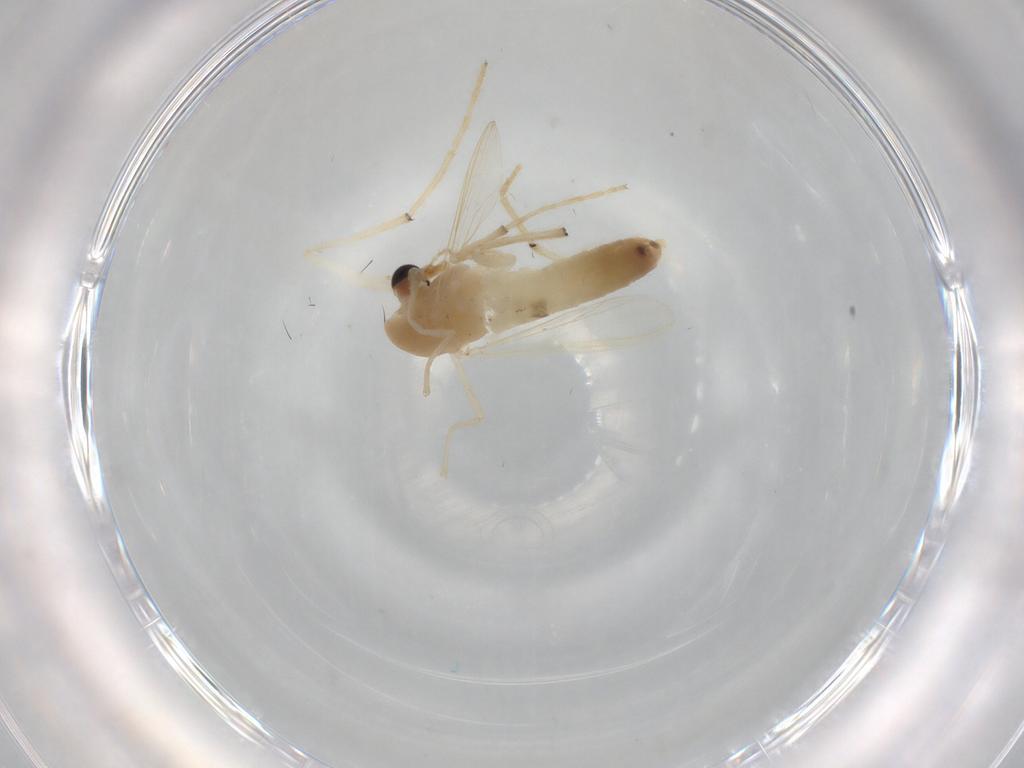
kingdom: Animalia
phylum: Arthropoda
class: Insecta
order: Diptera
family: Chironomidae
